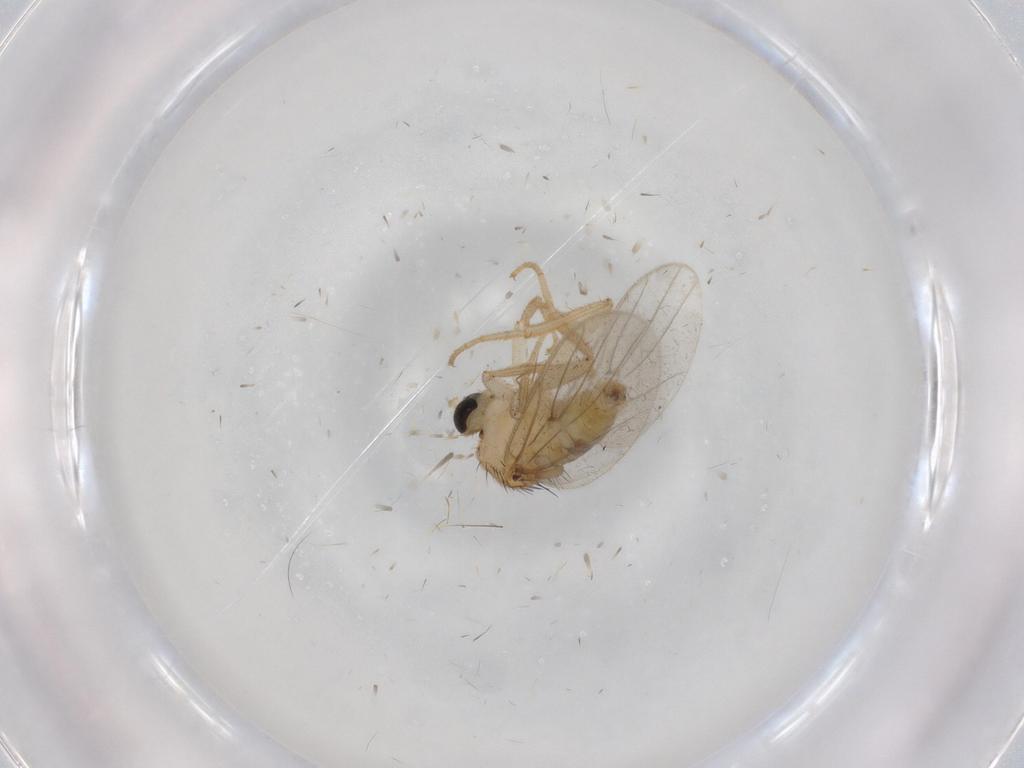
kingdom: Animalia
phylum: Arthropoda
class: Insecta
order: Diptera
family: Hybotidae
